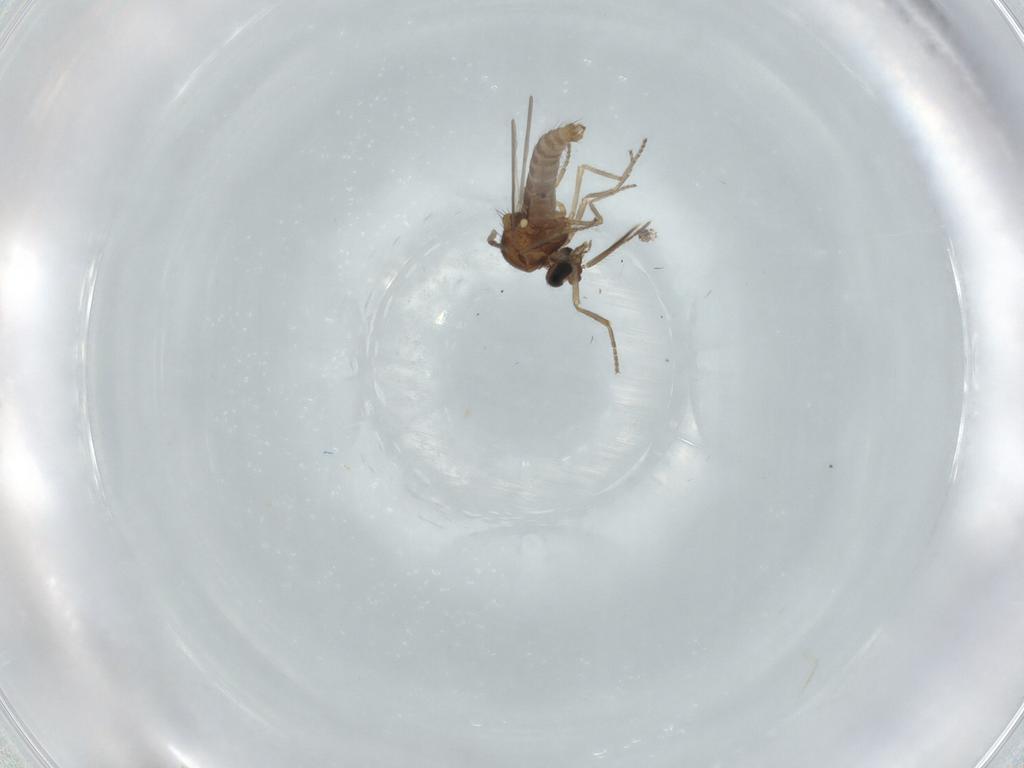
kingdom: Animalia
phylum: Arthropoda
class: Insecta
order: Diptera
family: Ceratopogonidae
